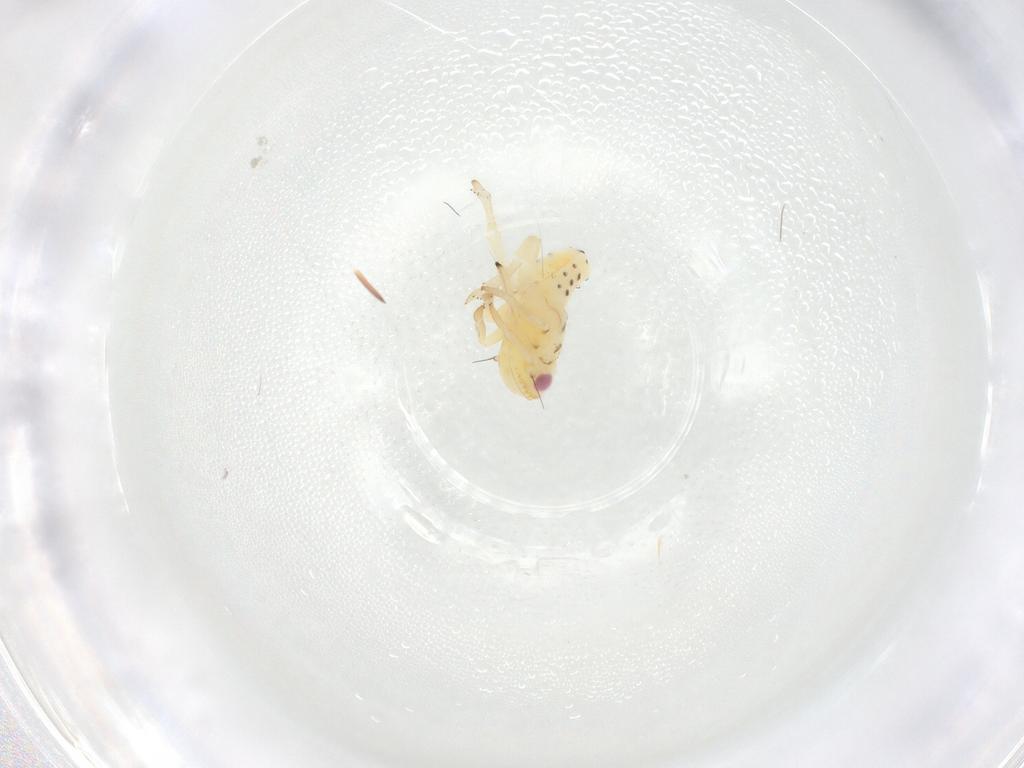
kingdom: Animalia
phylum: Arthropoda
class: Insecta
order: Hemiptera
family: Tropiduchidae
